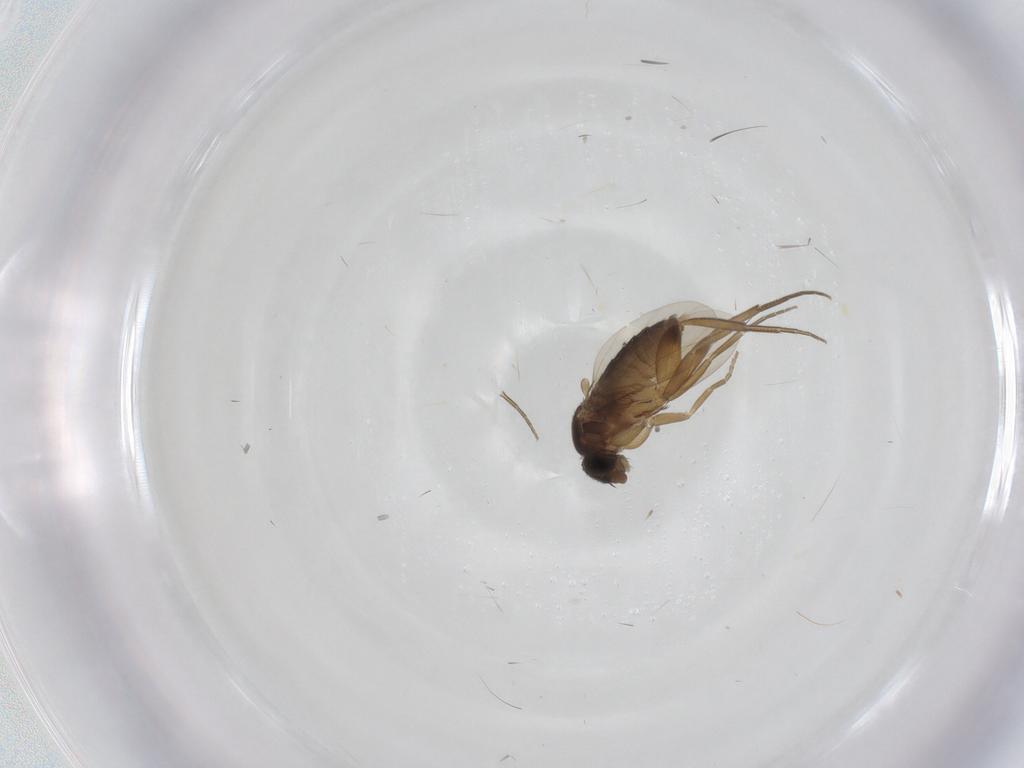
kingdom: Animalia
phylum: Arthropoda
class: Insecta
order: Diptera
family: Phoridae
